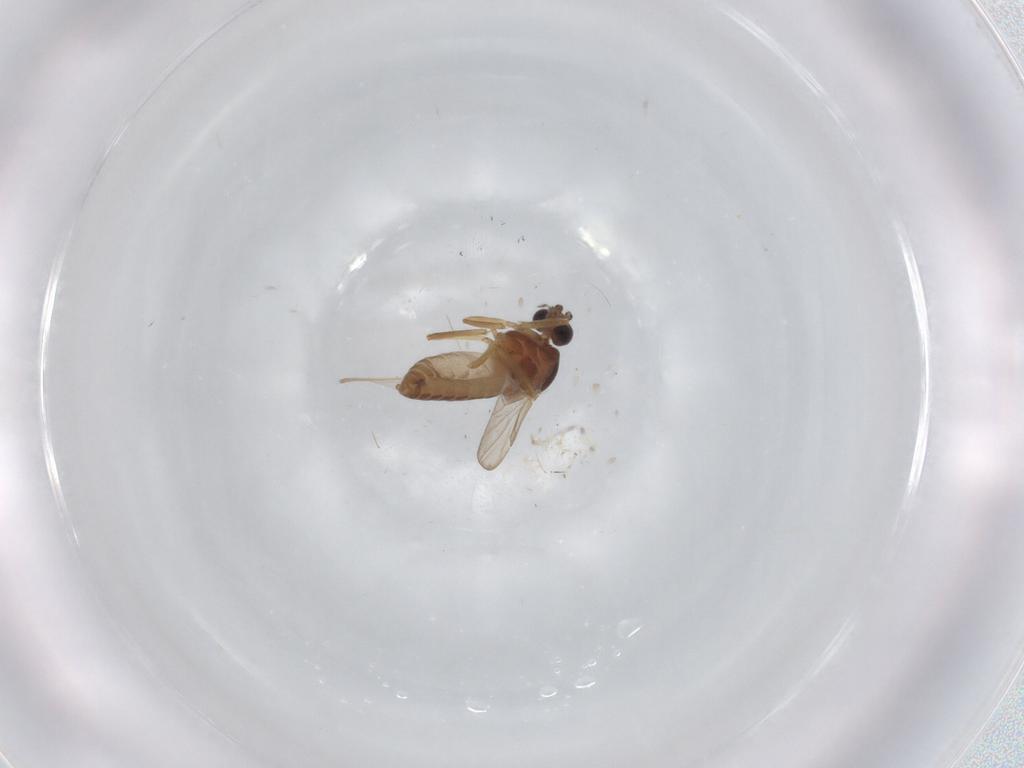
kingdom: Animalia
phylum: Arthropoda
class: Insecta
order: Diptera
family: Ceratopogonidae
